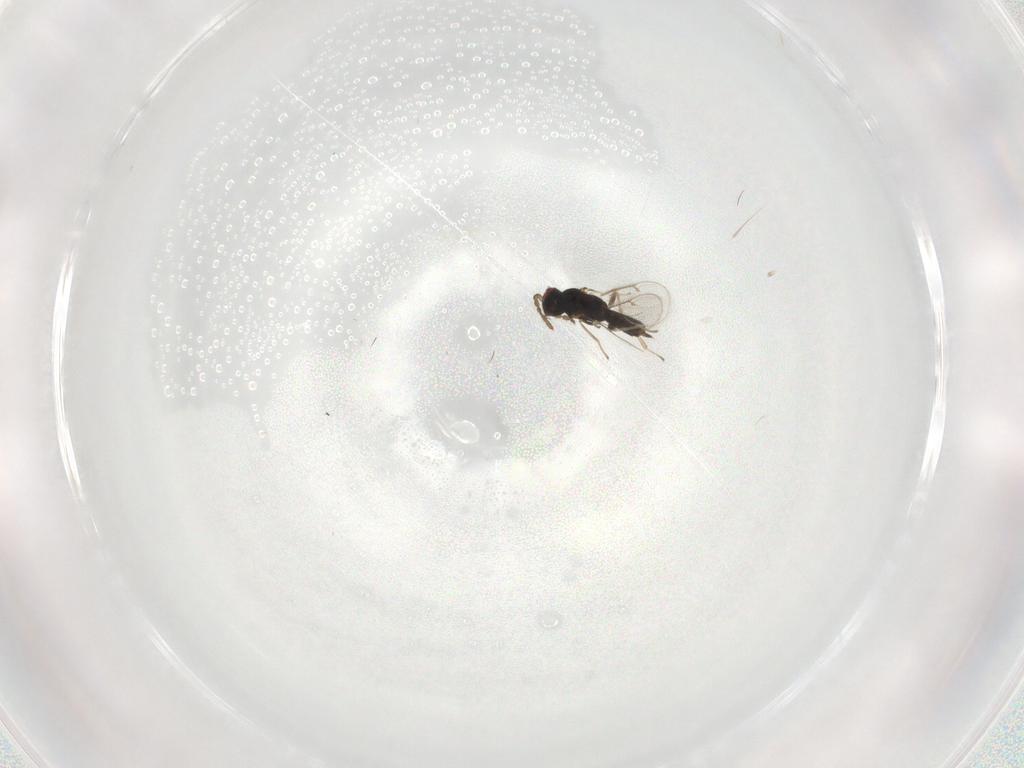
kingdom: Animalia
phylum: Arthropoda
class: Insecta
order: Hymenoptera
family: Eulophidae
